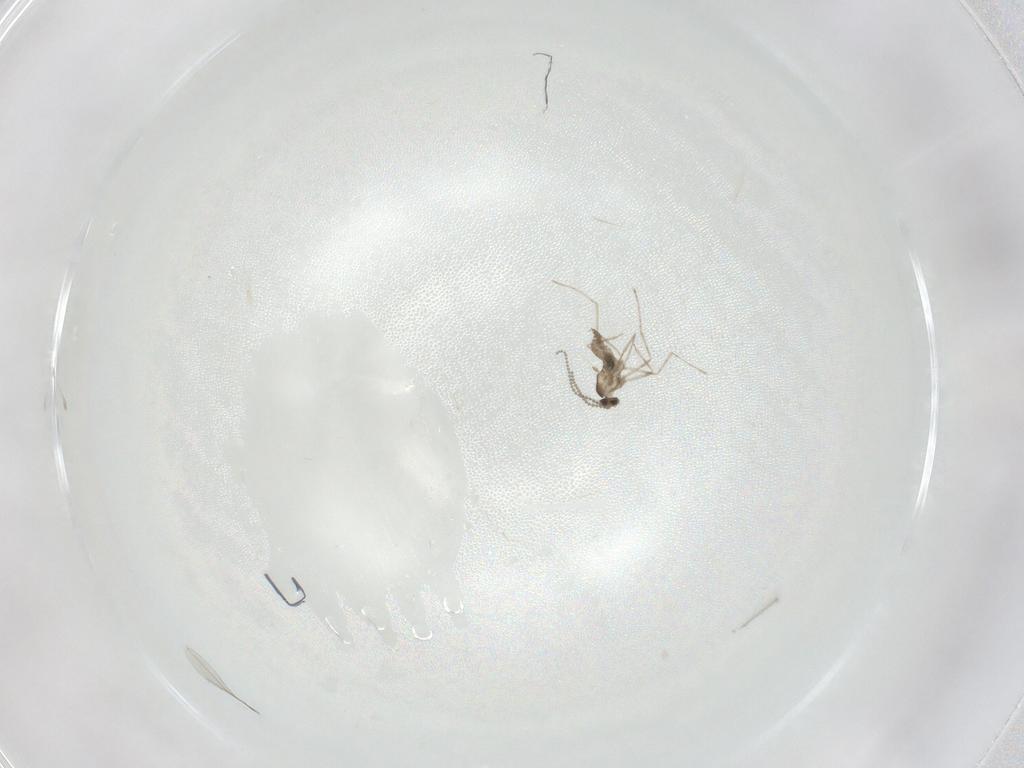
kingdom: Animalia
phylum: Arthropoda
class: Insecta
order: Diptera
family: Cecidomyiidae
